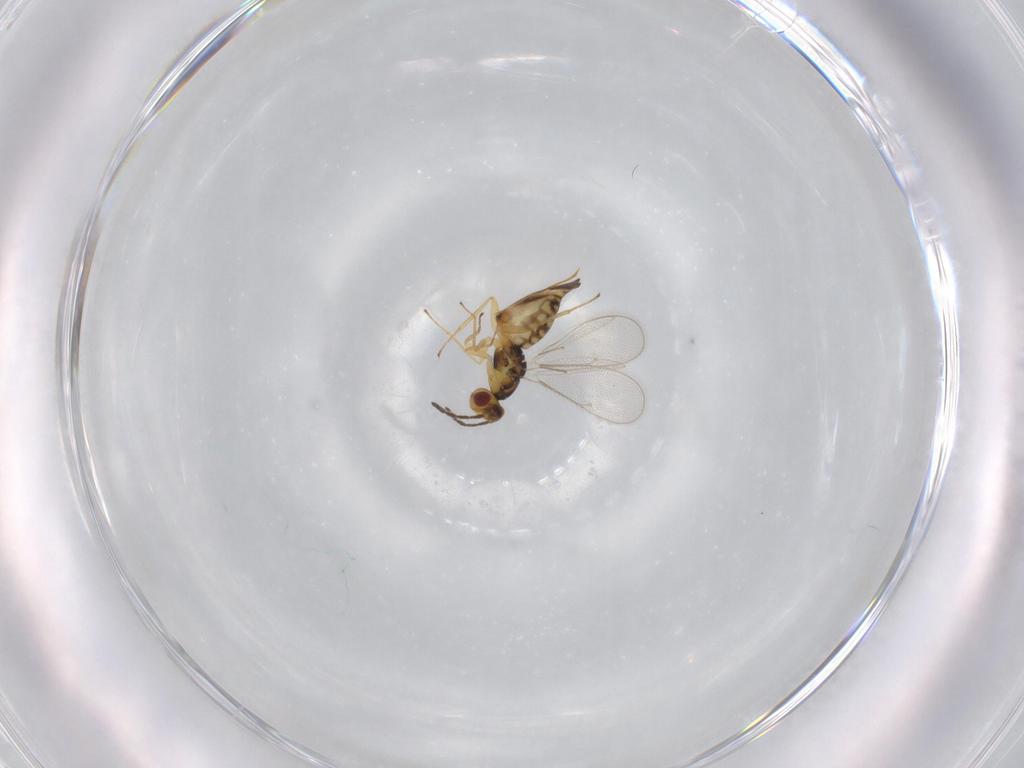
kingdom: Animalia
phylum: Arthropoda
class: Insecta
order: Hymenoptera
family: Eulophidae
